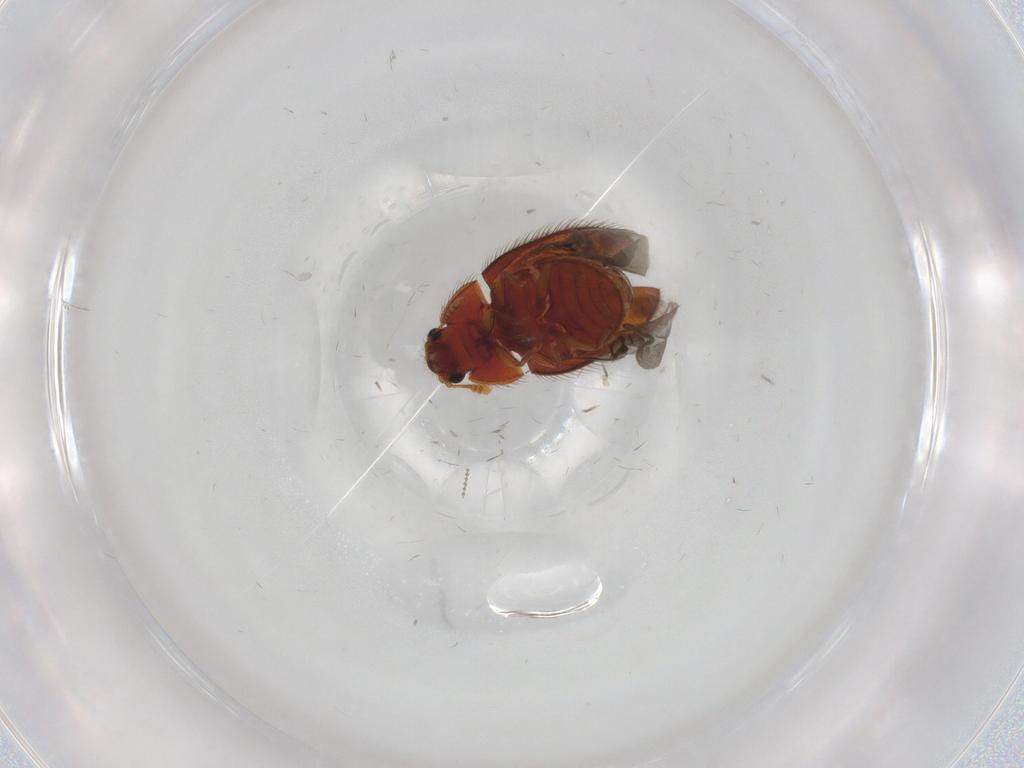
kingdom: Animalia
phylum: Arthropoda
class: Insecta
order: Coleoptera
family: Biphyllidae
